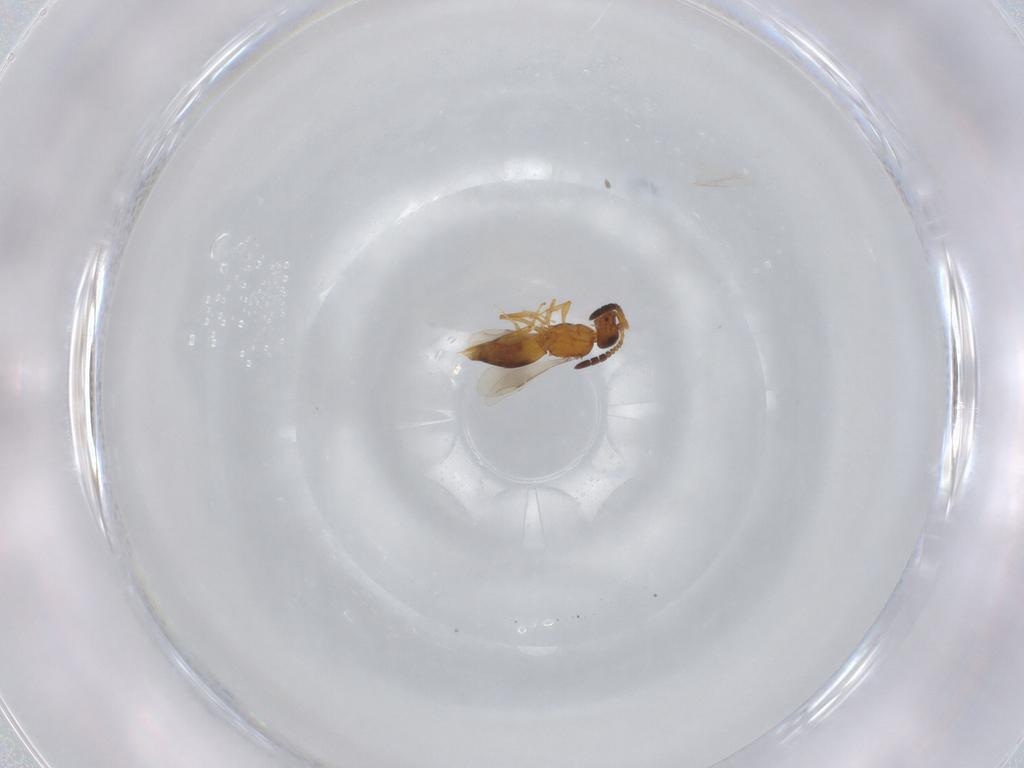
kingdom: Animalia
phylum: Arthropoda
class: Insecta
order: Hymenoptera
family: Ceraphronidae
